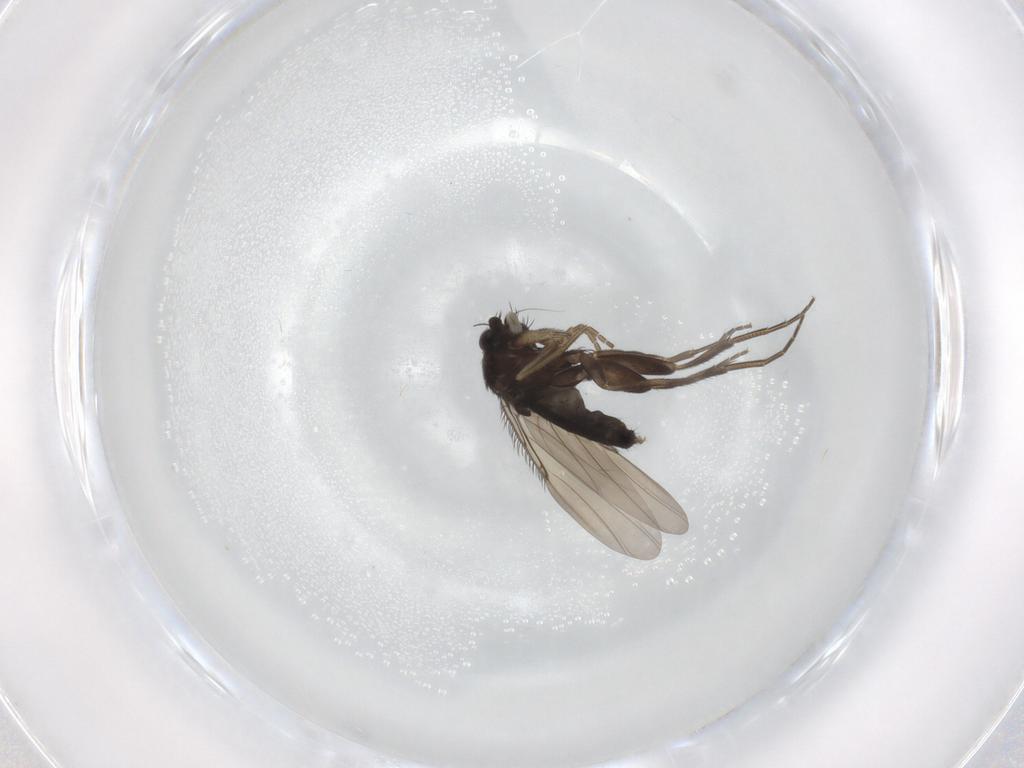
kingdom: Animalia
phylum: Arthropoda
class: Insecta
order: Diptera
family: Phoridae
